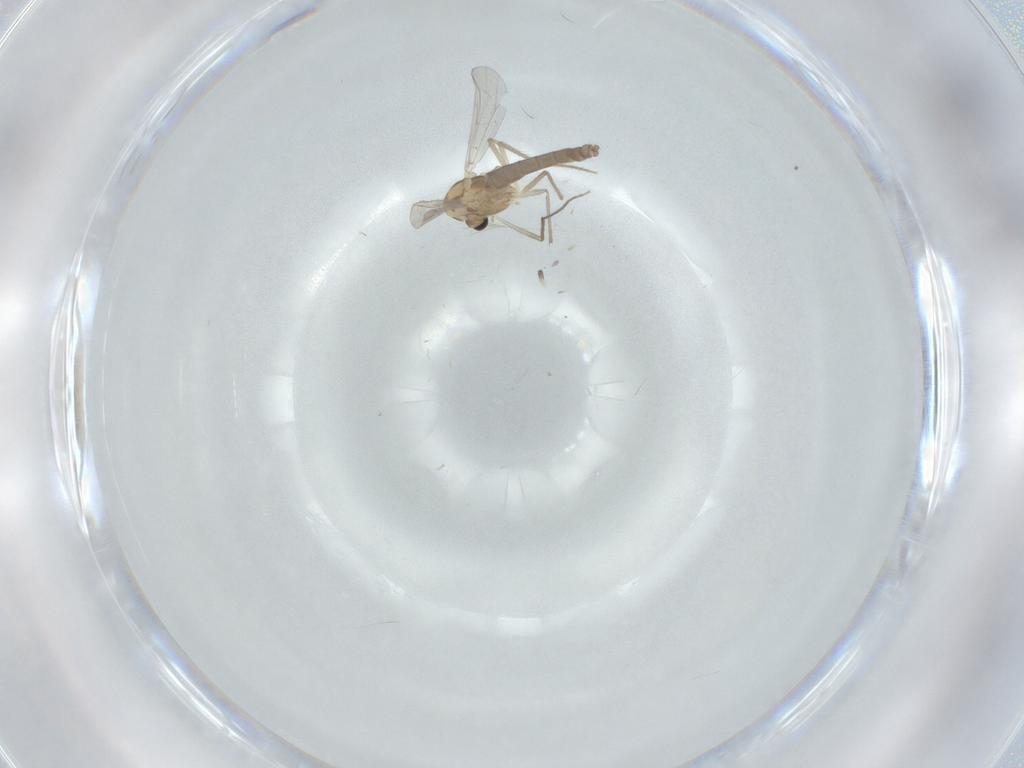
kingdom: Animalia
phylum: Arthropoda
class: Insecta
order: Diptera
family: Chironomidae
